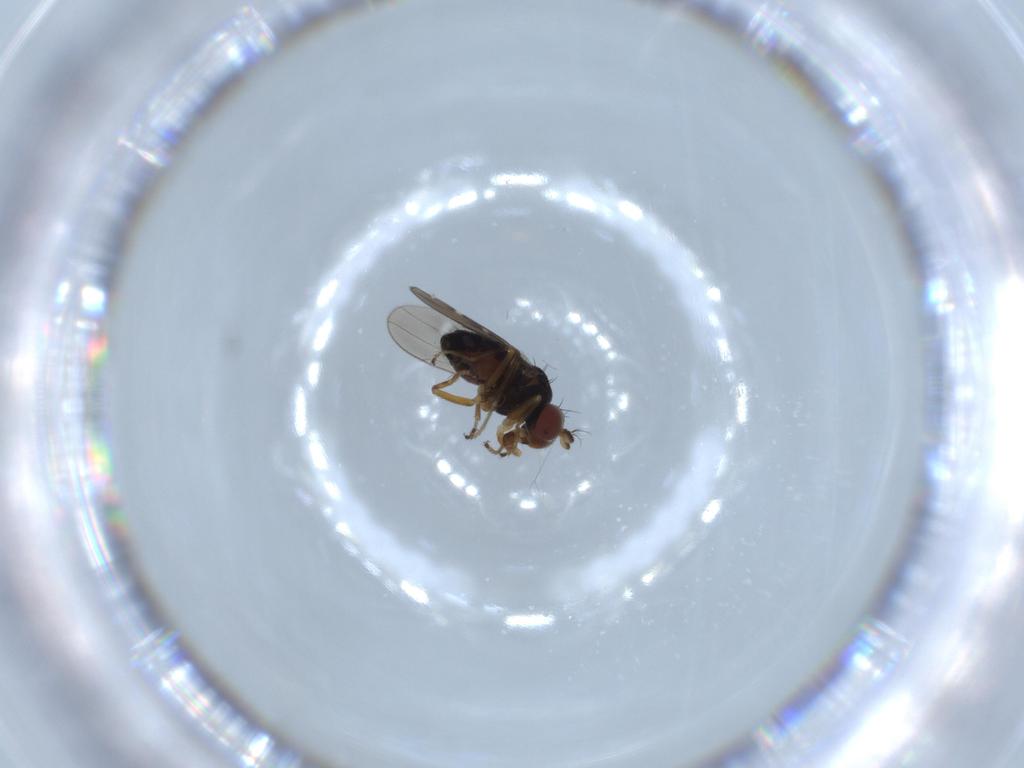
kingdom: Animalia
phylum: Arthropoda
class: Insecta
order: Diptera
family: Ephydridae
